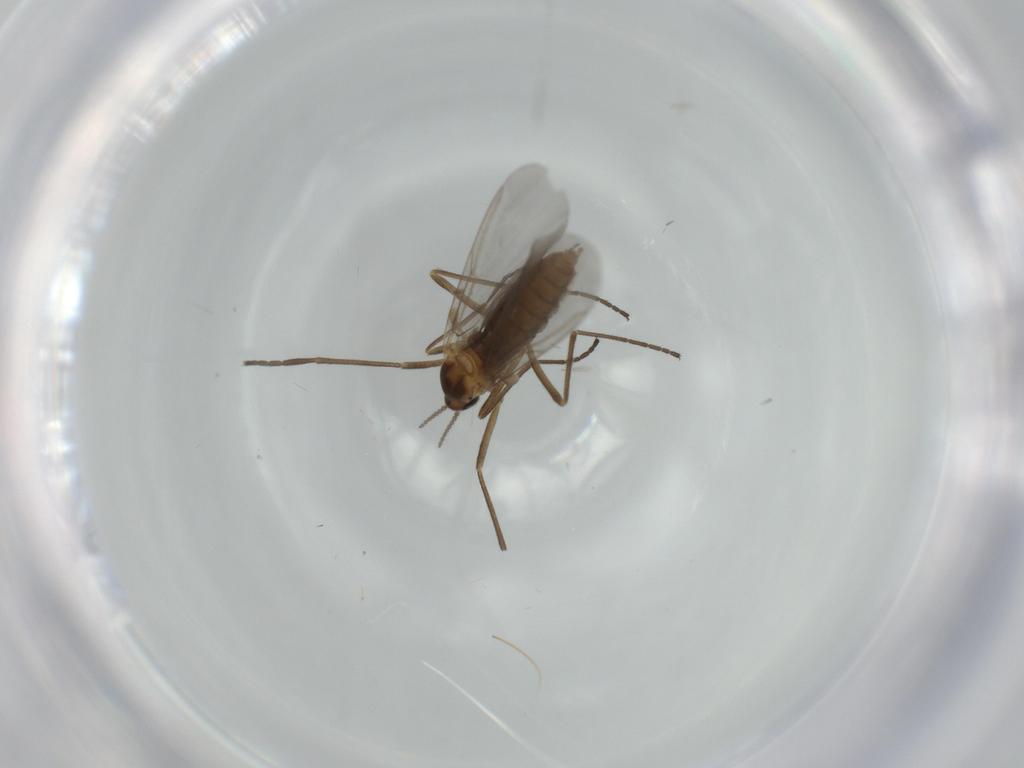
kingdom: Animalia
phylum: Arthropoda
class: Insecta
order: Diptera
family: Cecidomyiidae
